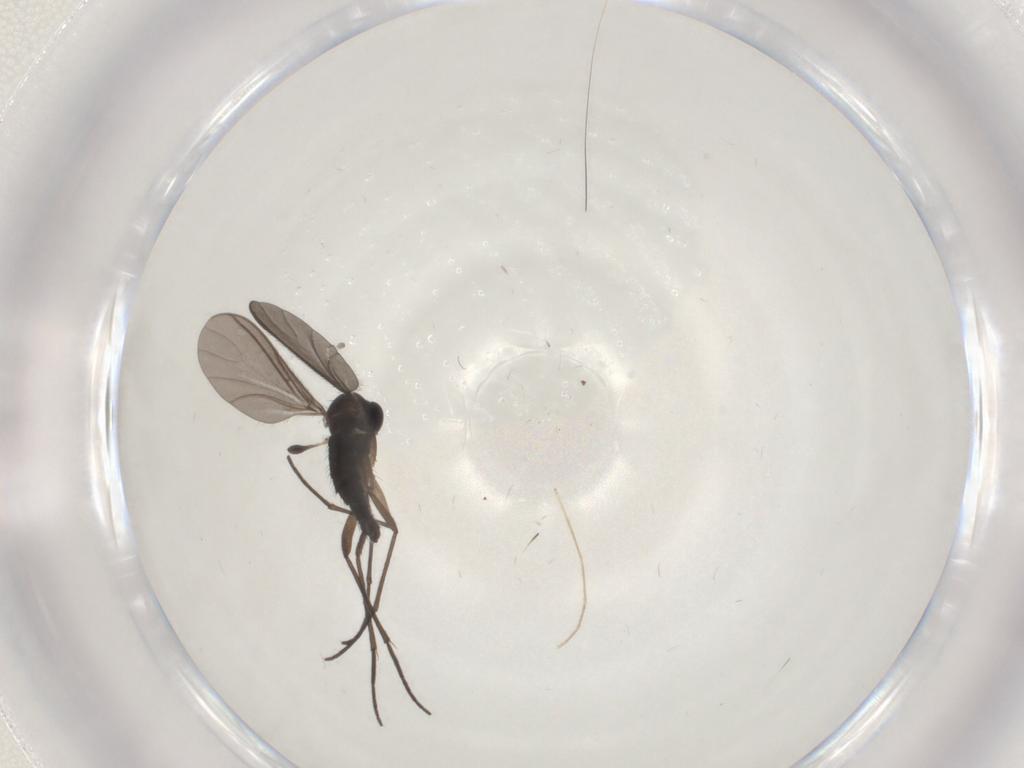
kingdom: Animalia
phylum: Arthropoda
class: Insecta
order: Diptera
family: Sciaridae
